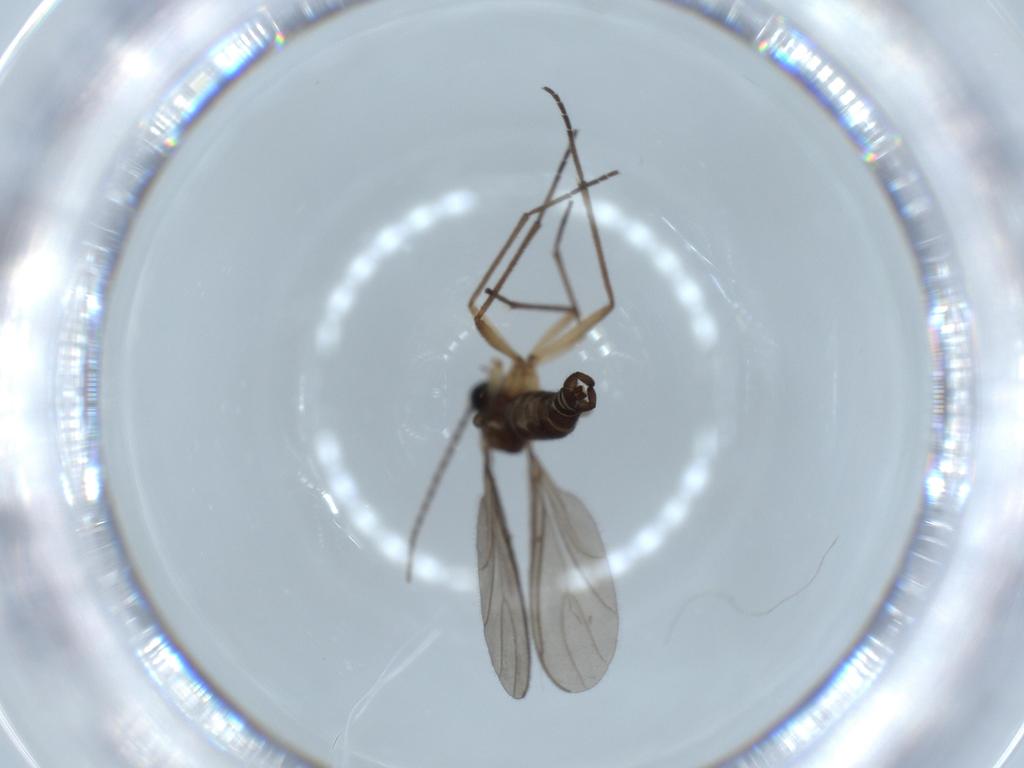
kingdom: Animalia
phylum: Arthropoda
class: Insecta
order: Diptera
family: Sciaridae
